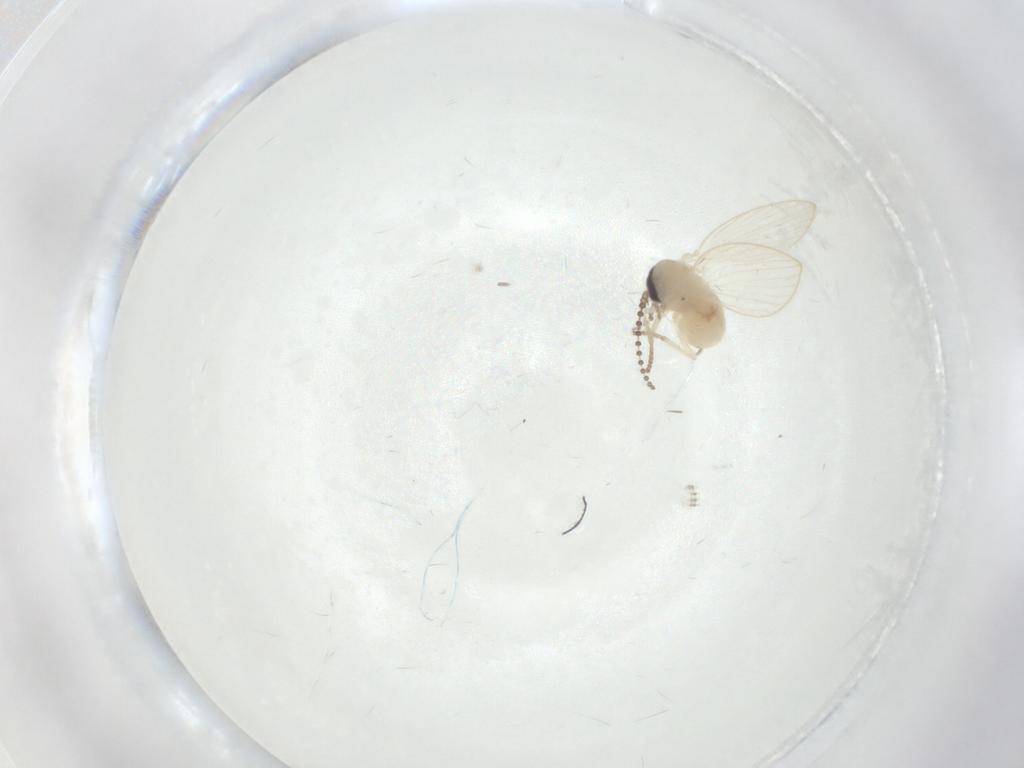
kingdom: Animalia
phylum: Arthropoda
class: Insecta
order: Diptera
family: Psychodidae
